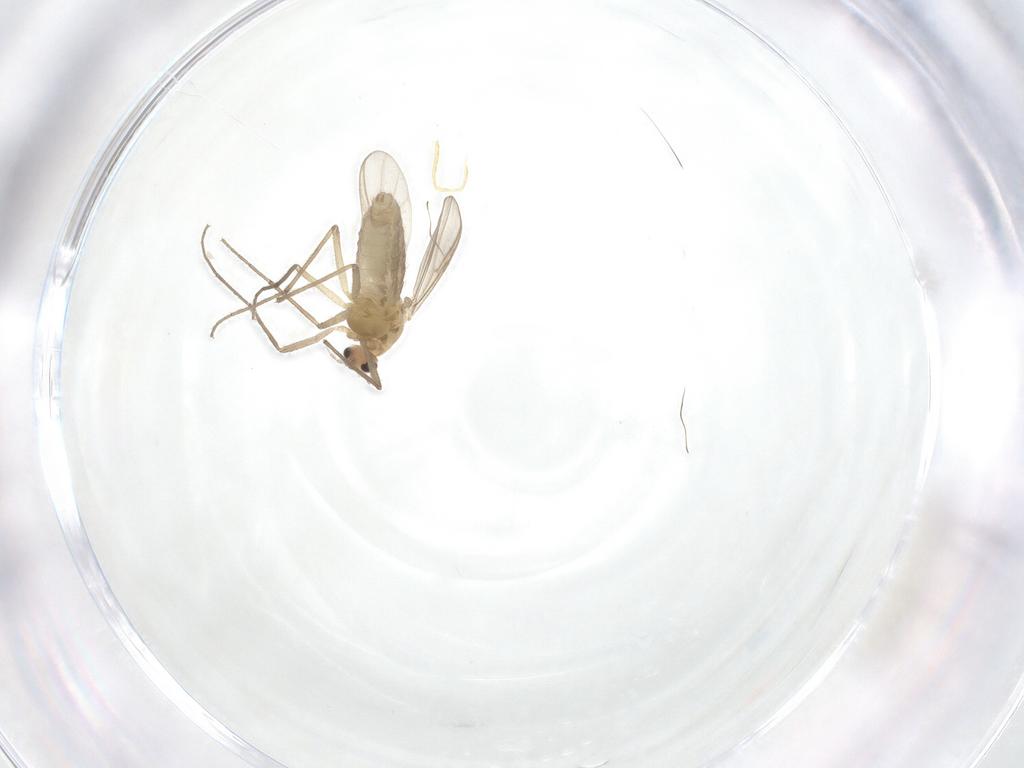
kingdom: Animalia
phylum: Arthropoda
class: Insecta
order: Diptera
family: Chironomidae
